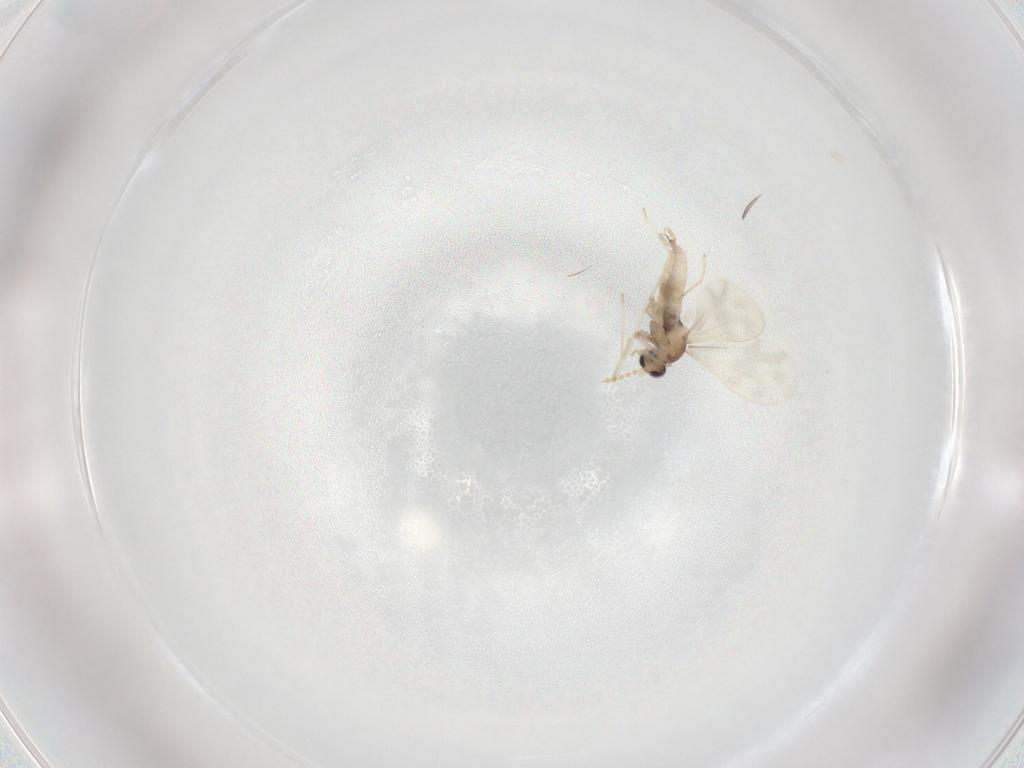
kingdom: Animalia
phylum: Arthropoda
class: Insecta
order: Diptera
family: Cecidomyiidae
